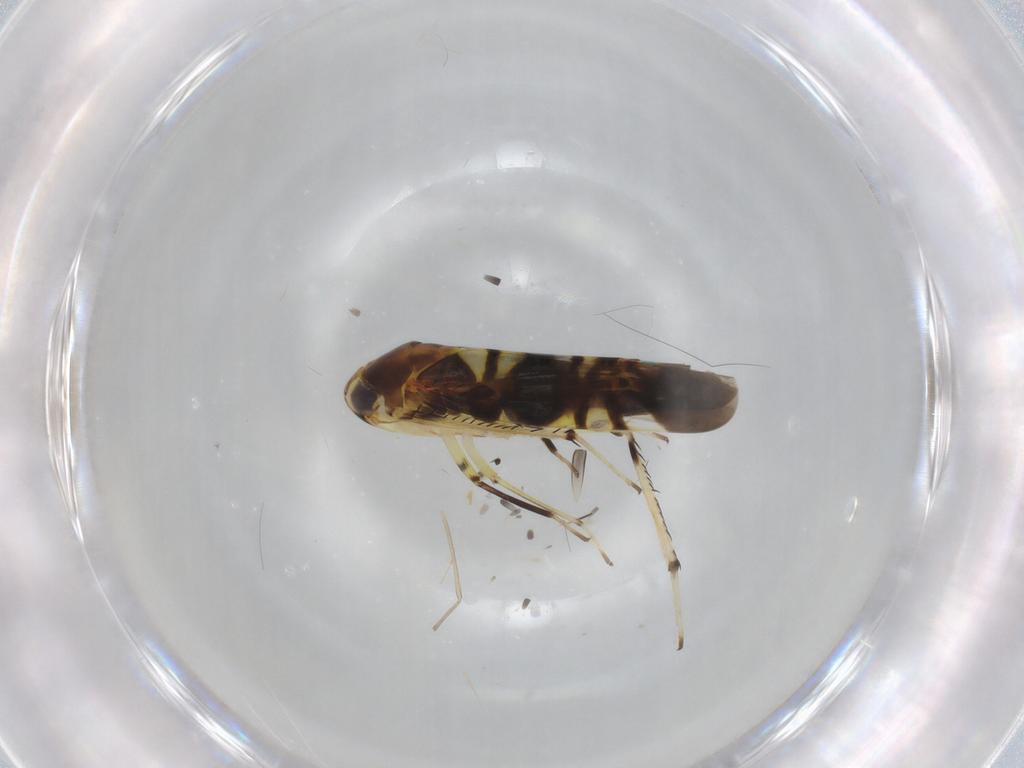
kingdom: Animalia
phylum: Arthropoda
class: Insecta
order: Hemiptera
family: Cicadellidae
